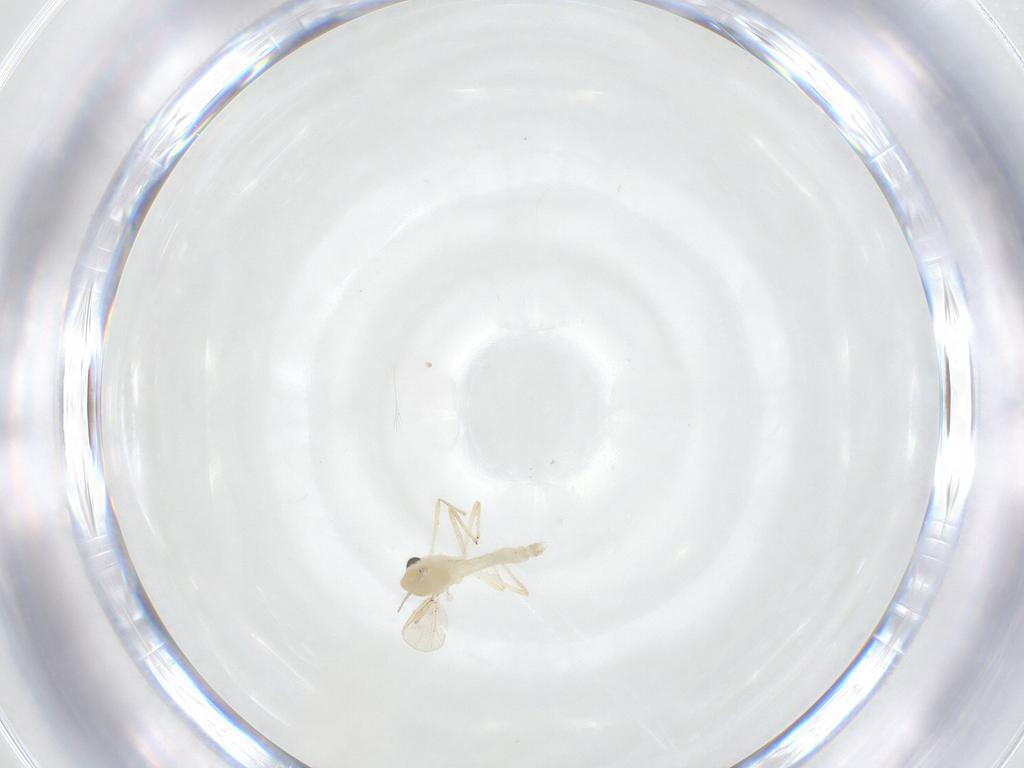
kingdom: Animalia
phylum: Arthropoda
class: Insecta
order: Diptera
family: Chironomidae
